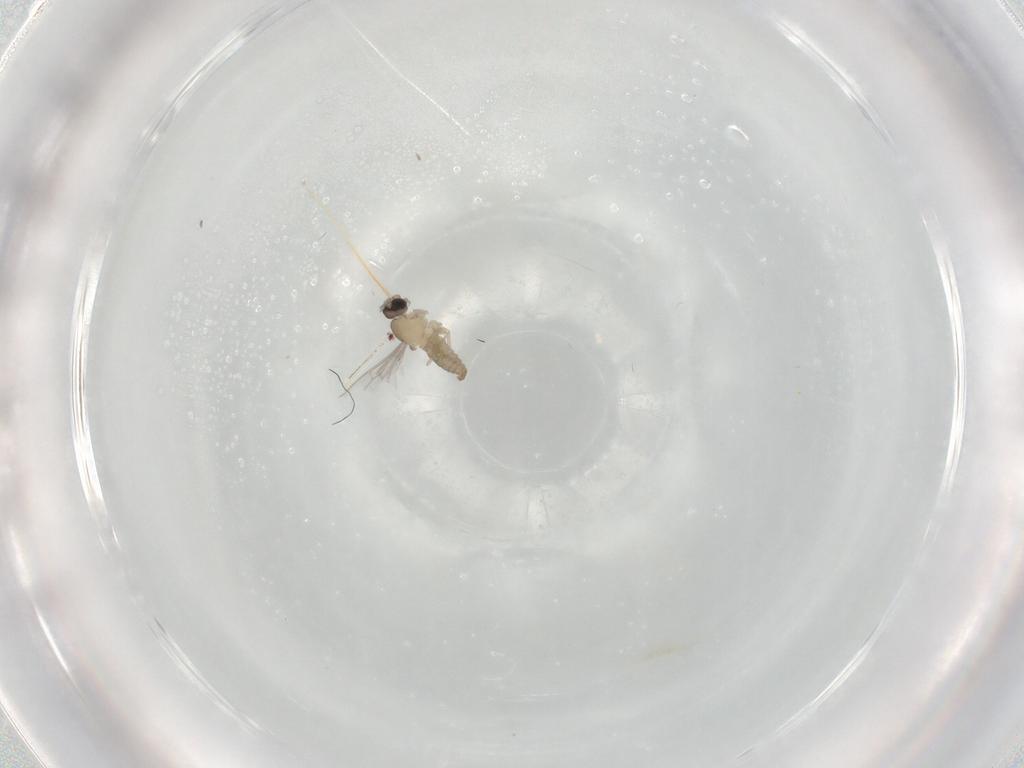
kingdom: Animalia
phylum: Arthropoda
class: Insecta
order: Diptera
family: Cecidomyiidae
